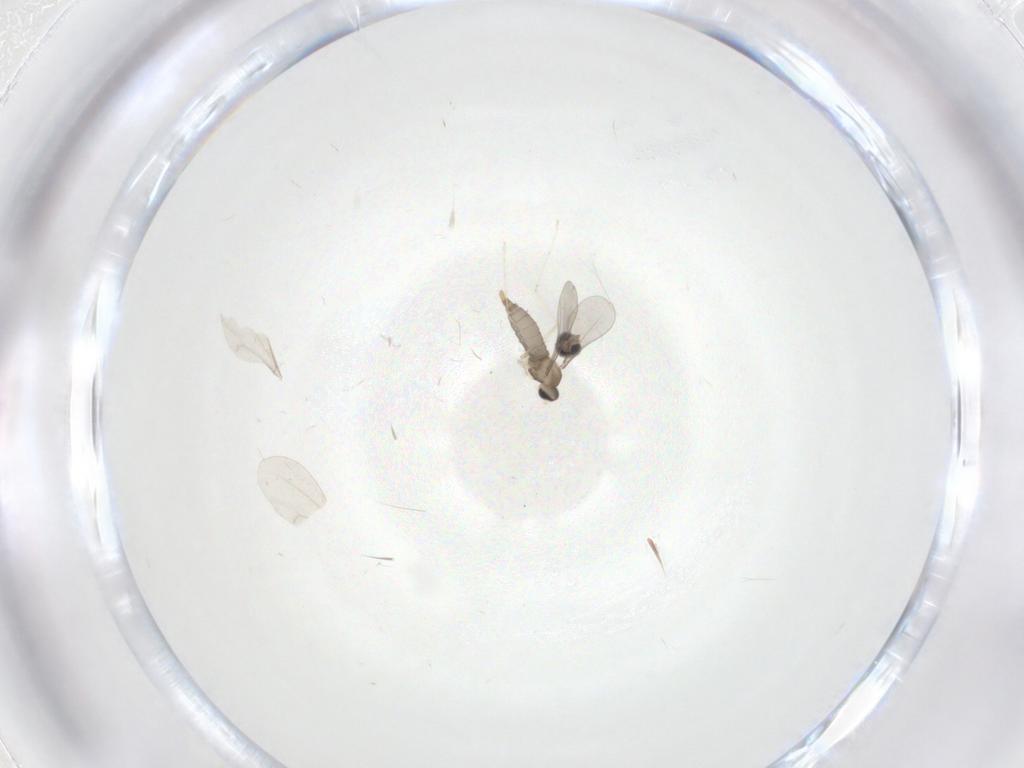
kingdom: Animalia
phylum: Arthropoda
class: Insecta
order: Diptera
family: Cecidomyiidae
